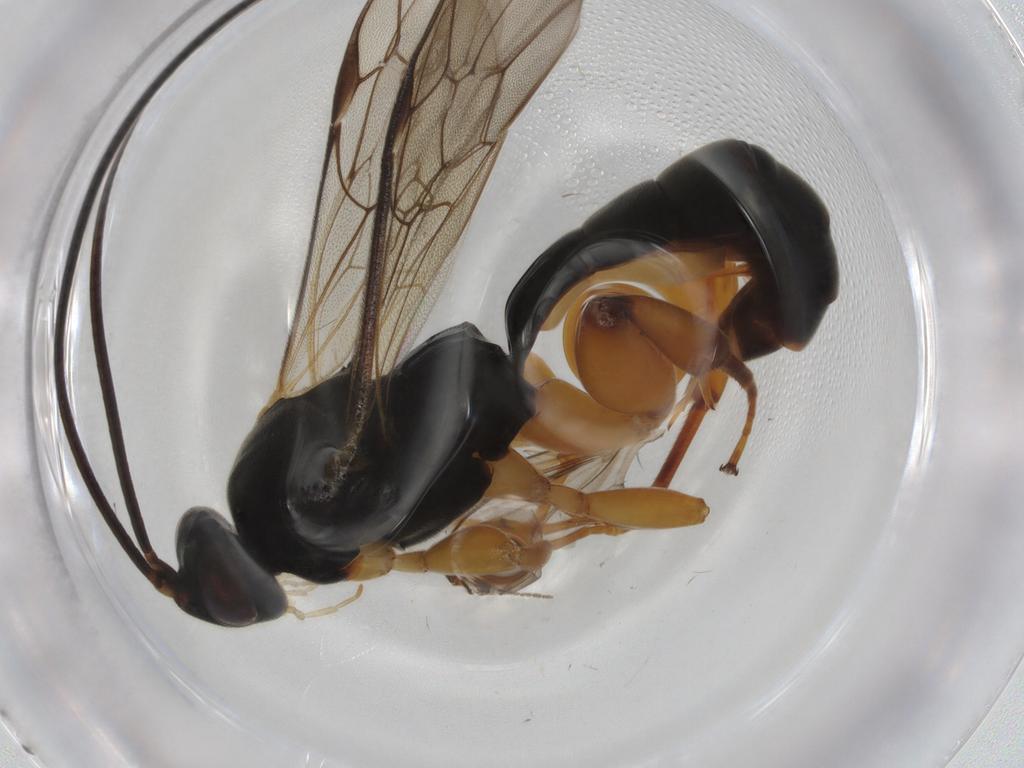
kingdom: Animalia
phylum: Arthropoda
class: Insecta
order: Hymenoptera
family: Ichneumonidae
